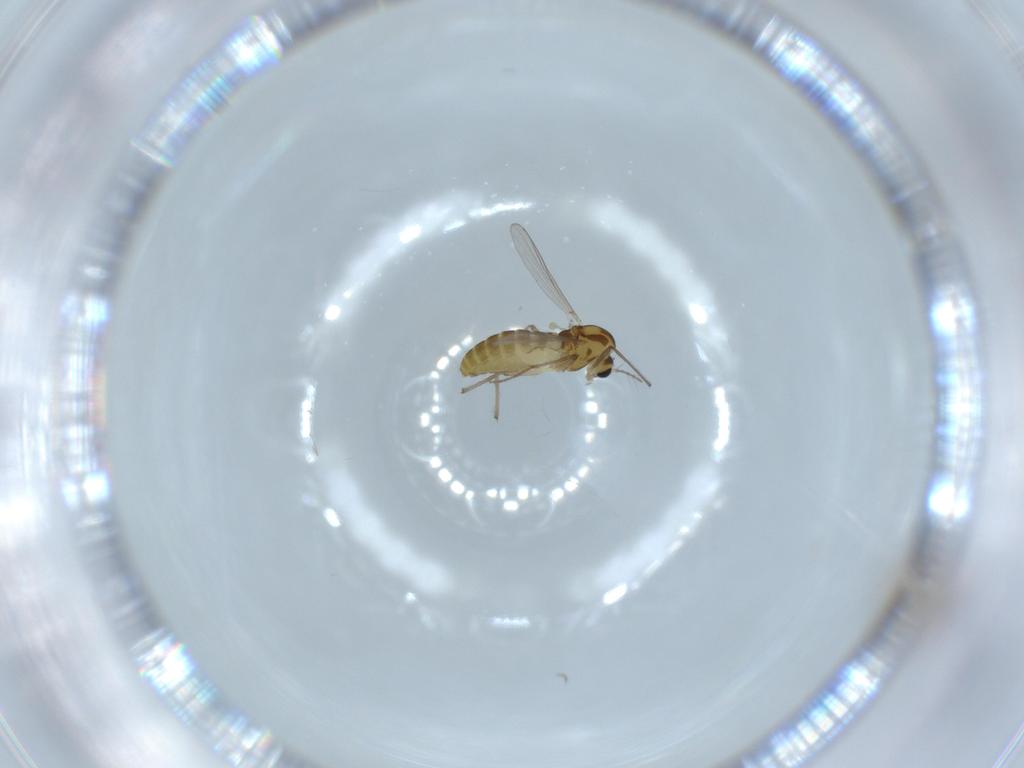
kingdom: Animalia
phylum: Arthropoda
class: Insecta
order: Diptera
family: Chironomidae
